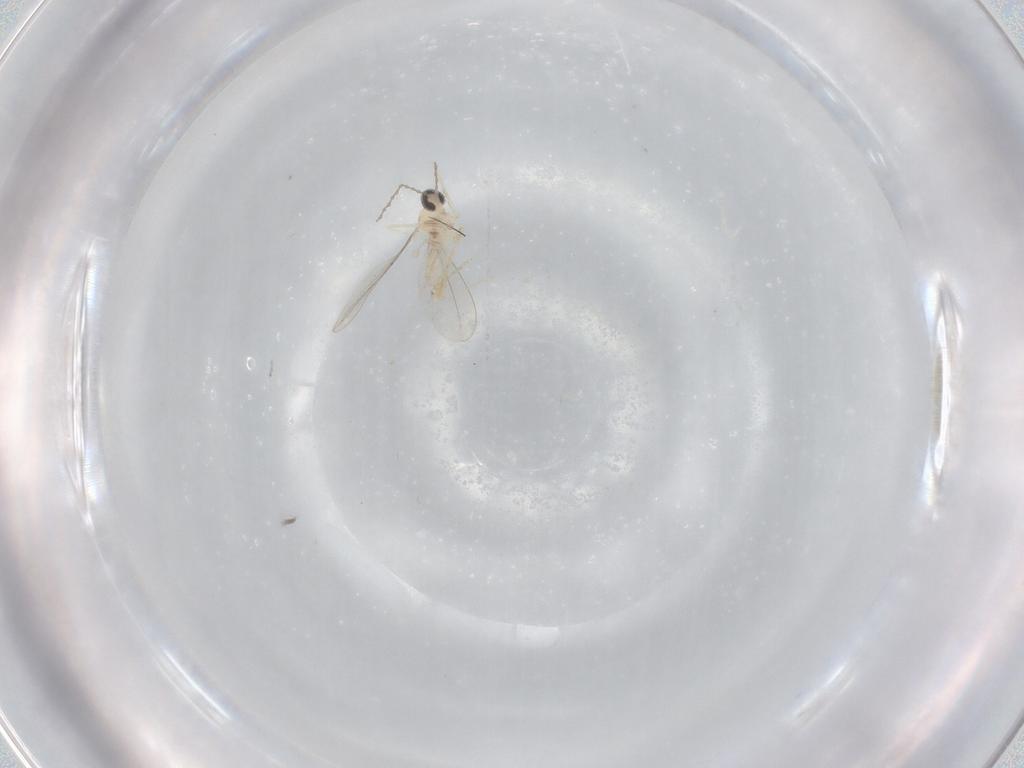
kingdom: Animalia
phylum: Arthropoda
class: Insecta
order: Diptera
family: Cecidomyiidae
